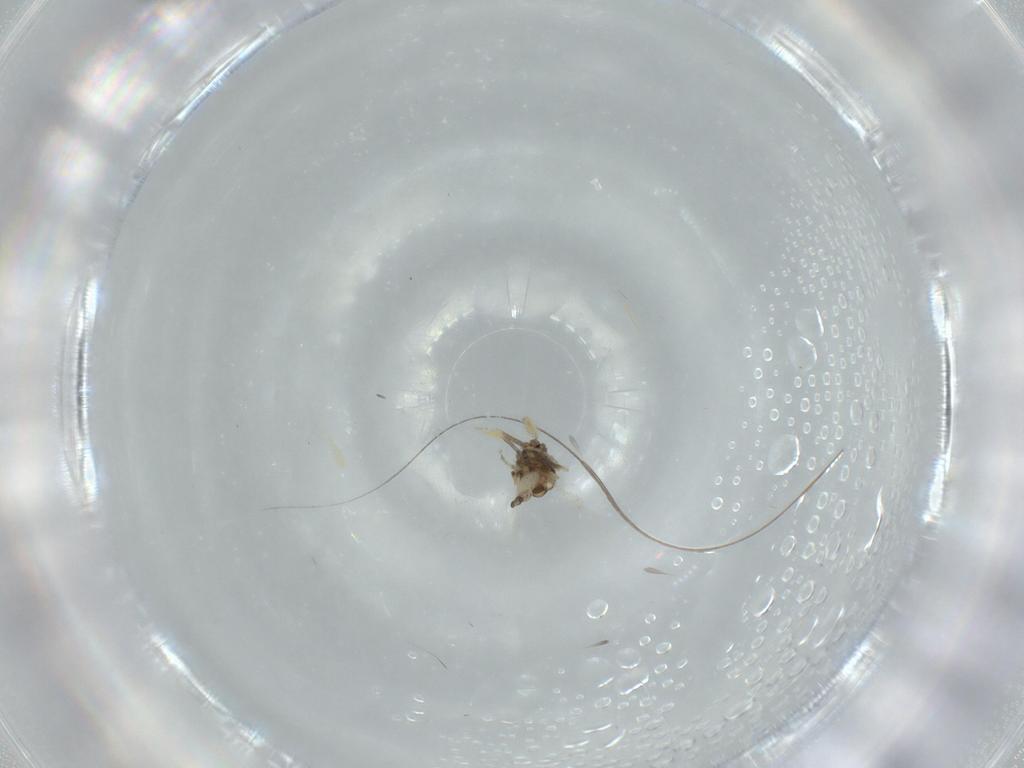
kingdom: Animalia
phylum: Arthropoda
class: Insecta
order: Diptera
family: Ceratopogonidae
